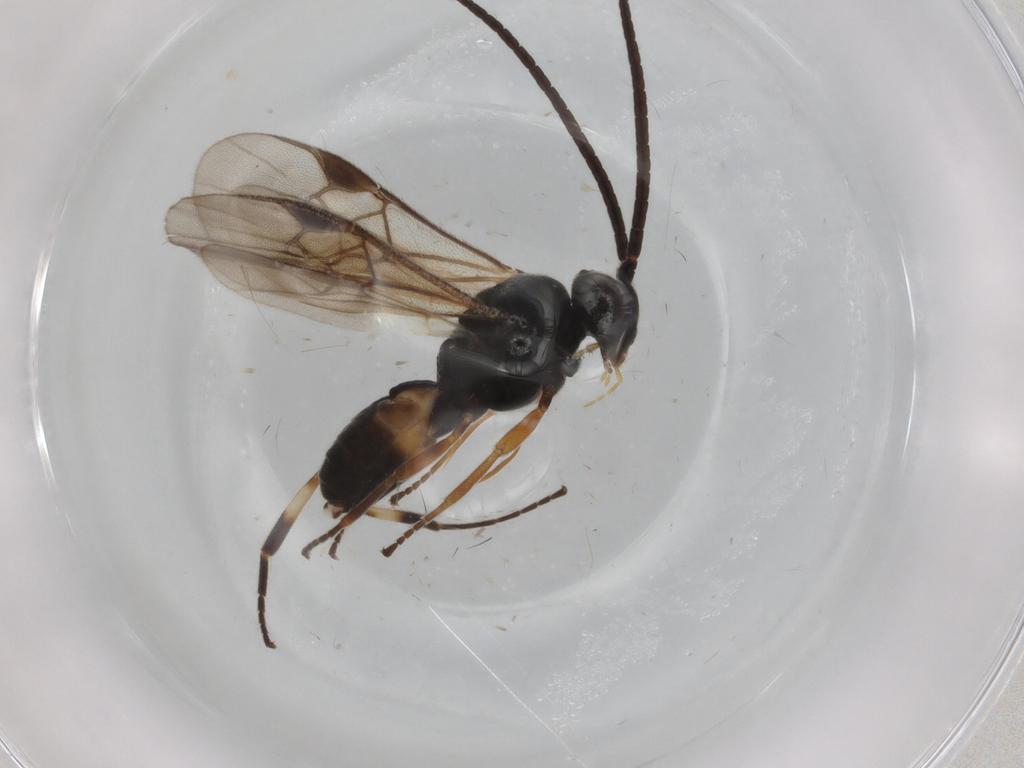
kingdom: Animalia
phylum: Arthropoda
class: Insecta
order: Hymenoptera
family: Braconidae
